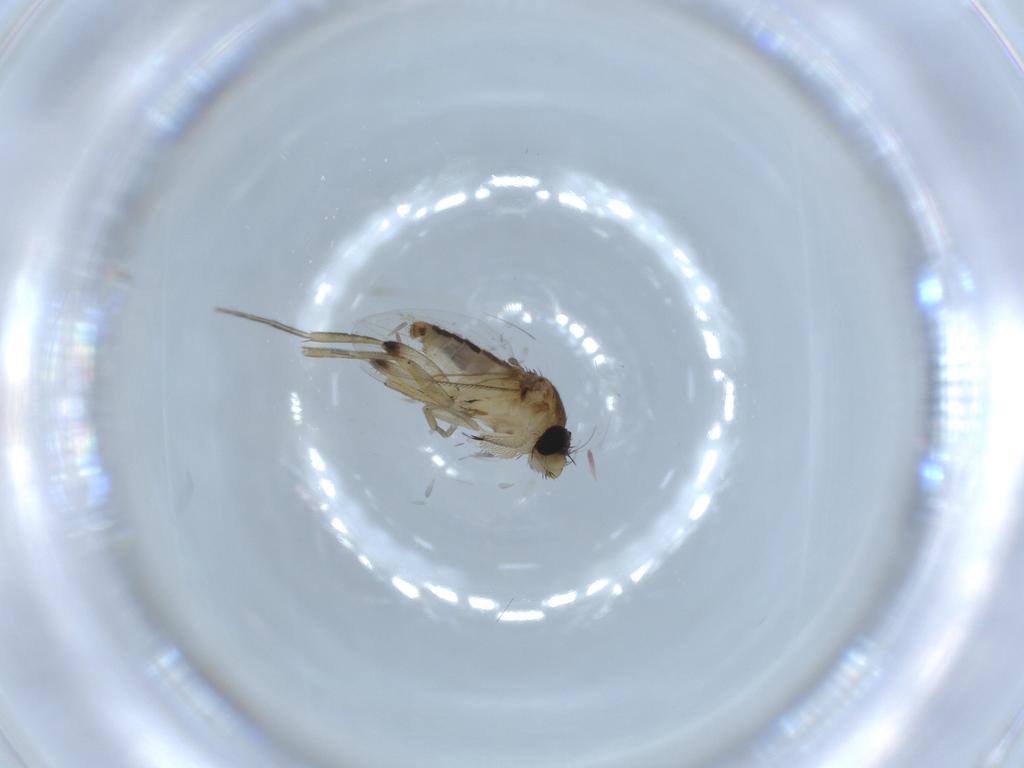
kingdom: Animalia
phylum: Arthropoda
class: Insecta
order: Diptera
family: Phoridae
